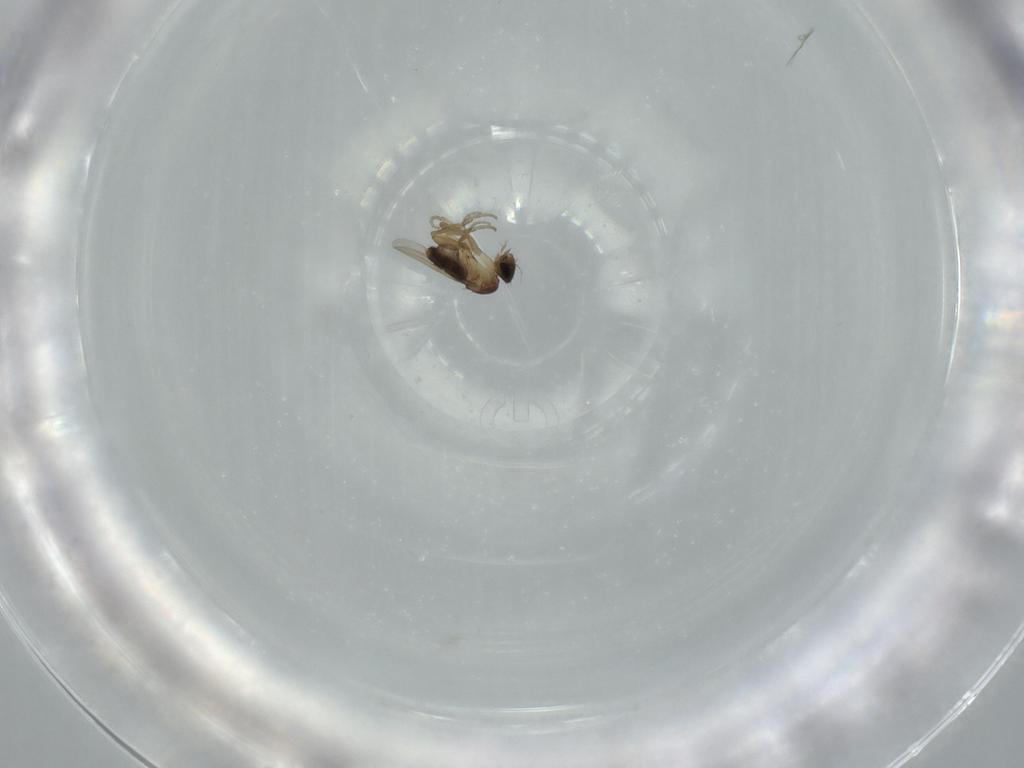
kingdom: Animalia
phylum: Arthropoda
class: Insecta
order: Diptera
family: Phoridae
